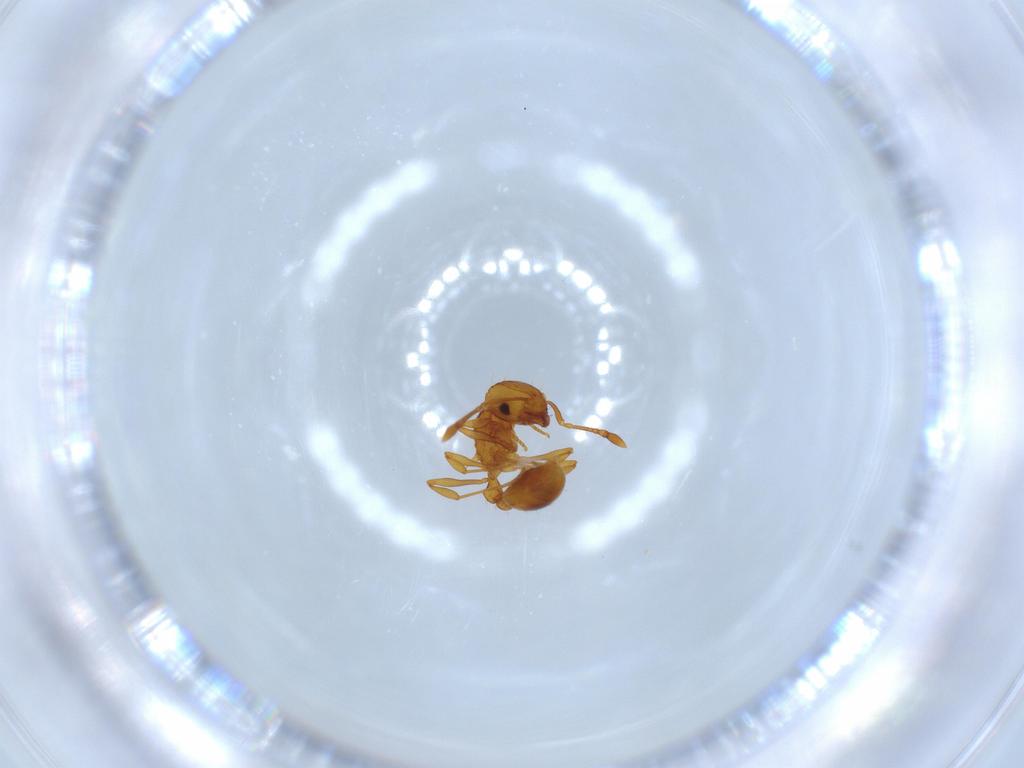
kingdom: Animalia
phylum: Arthropoda
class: Insecta
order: Hymenoptera
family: Formicidae
